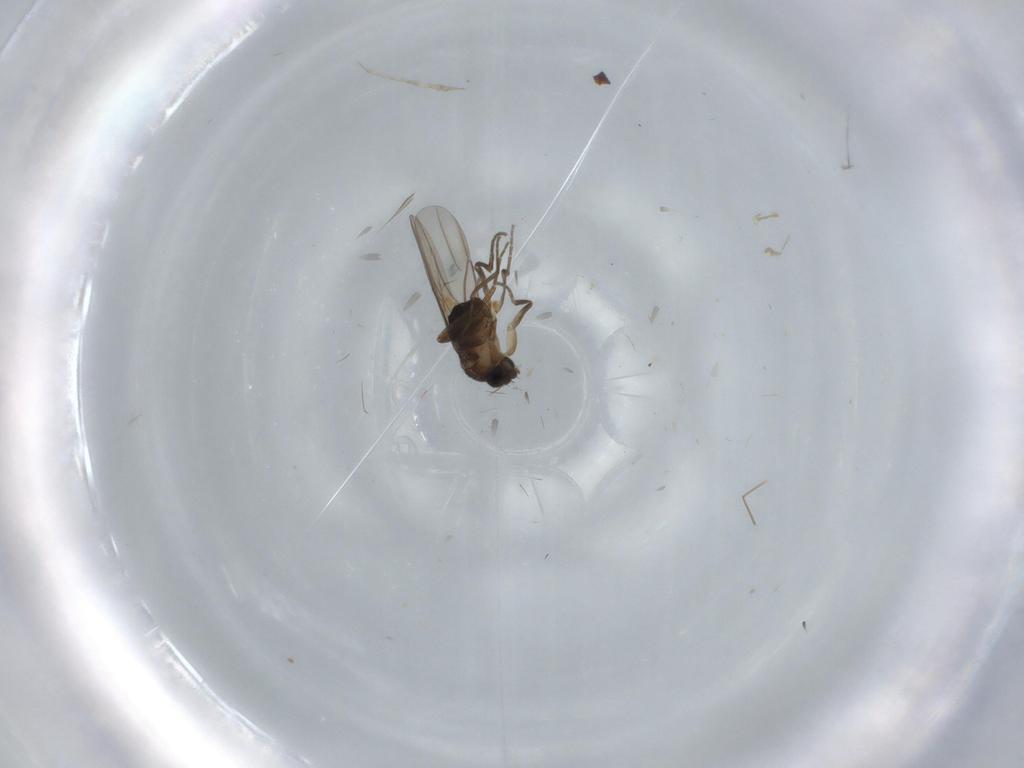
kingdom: Animalia
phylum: Arthropoda
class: Insecta
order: Diptera
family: Phoridae
